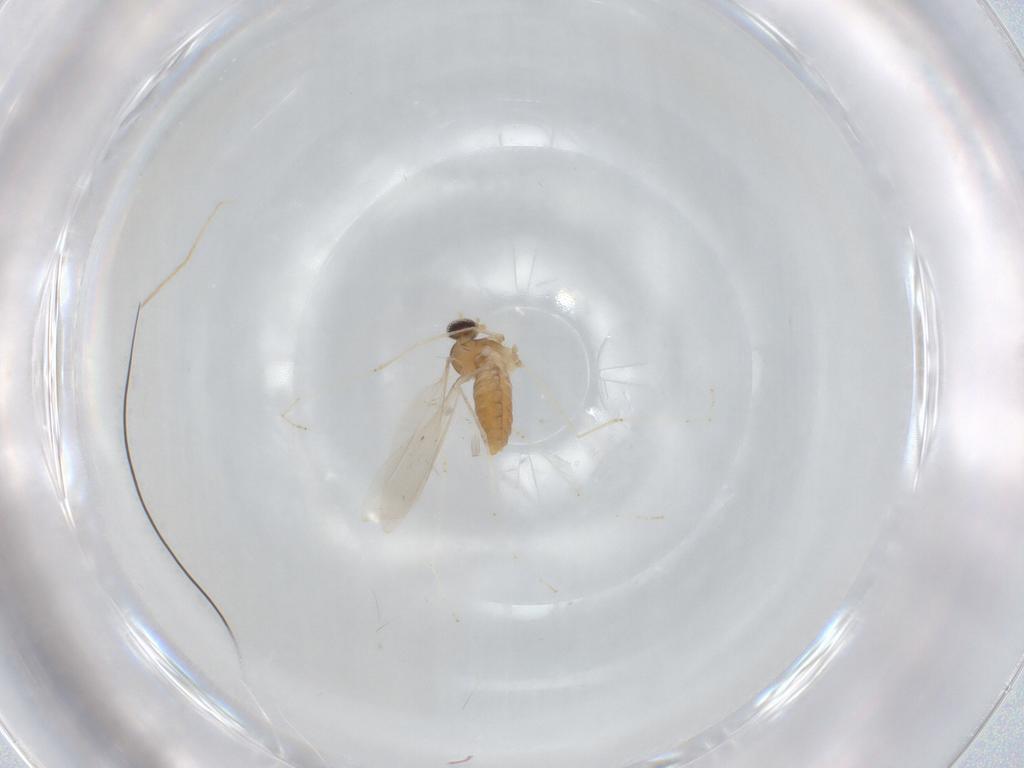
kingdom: Animalia
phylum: Arthropoda
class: Insecta
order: Diptera
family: Cecidomyiidae
